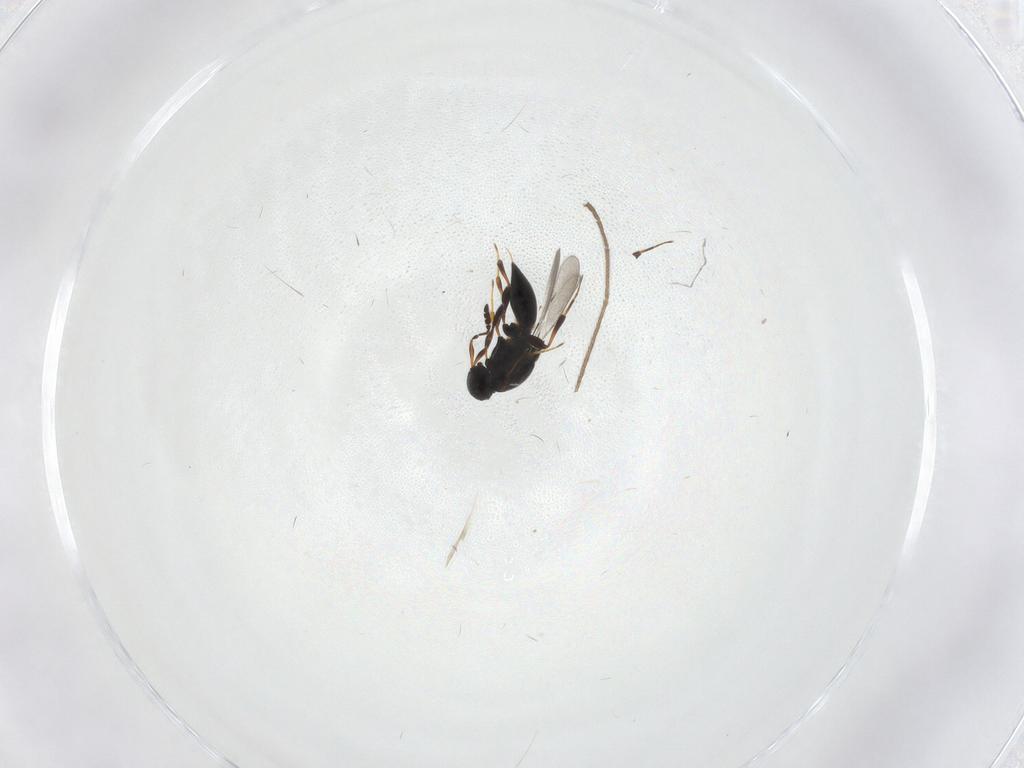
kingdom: Animalia
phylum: Arthropoda
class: Insecta
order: Hymenoptera
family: Platygastridae
